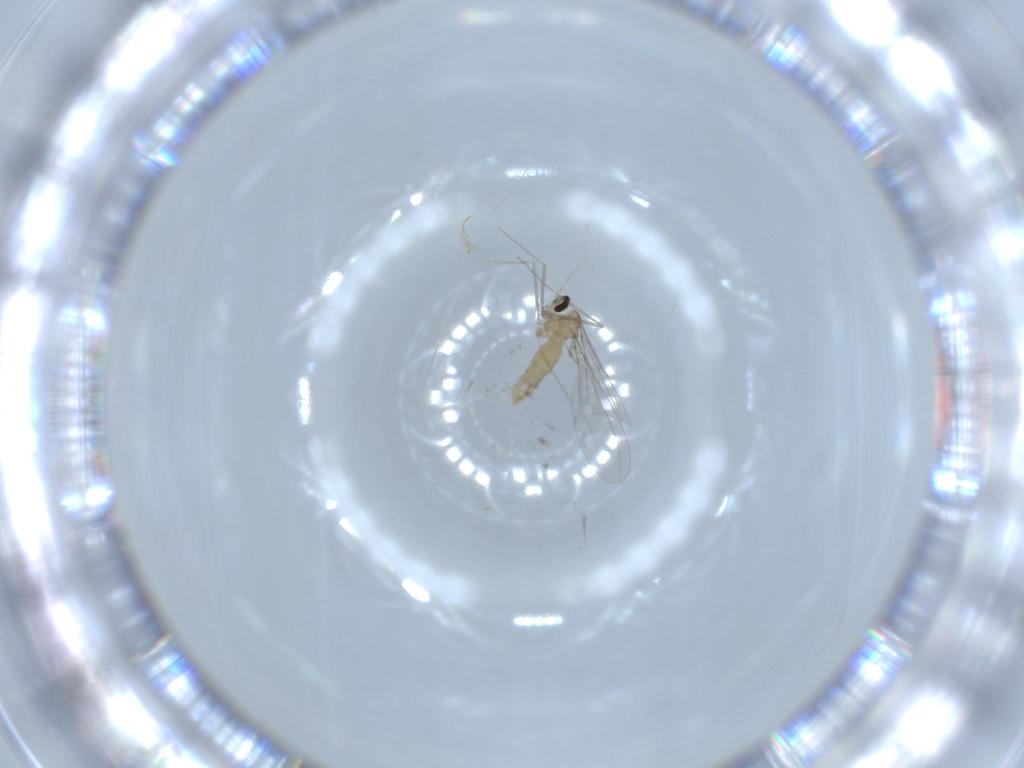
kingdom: Animalia
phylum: Arthropoda
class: Insecta
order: Diptera
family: Cecidomyiidae
